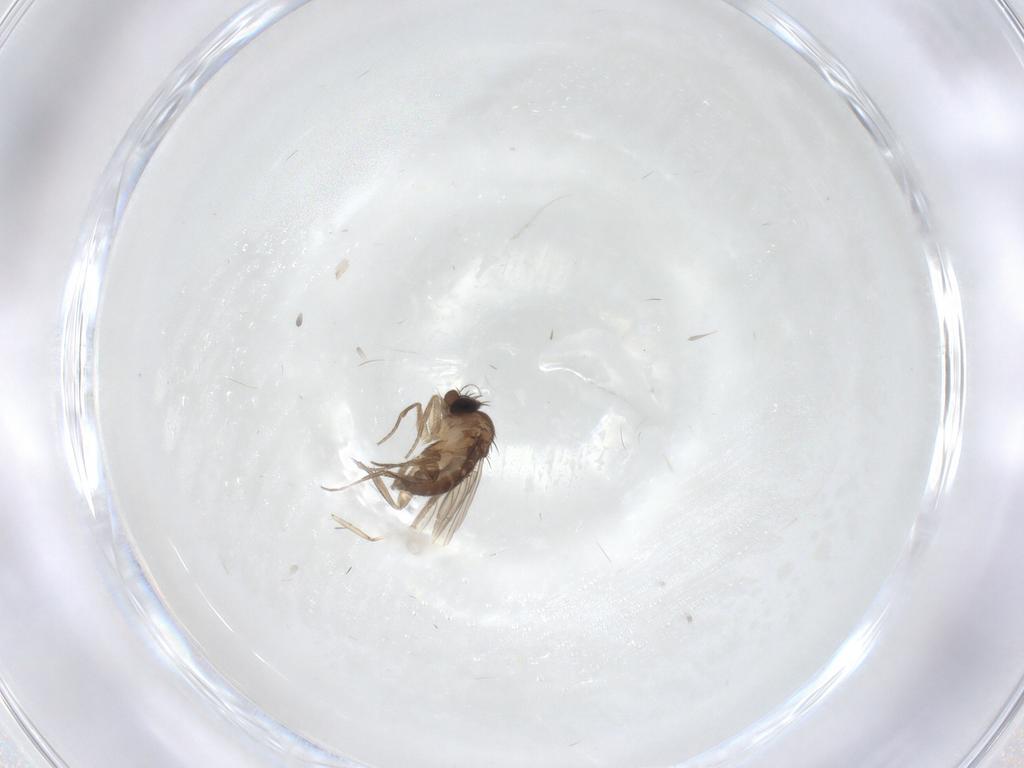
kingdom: Animalia
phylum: Arthropoda
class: Insecta
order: Diptera
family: Phoridae
